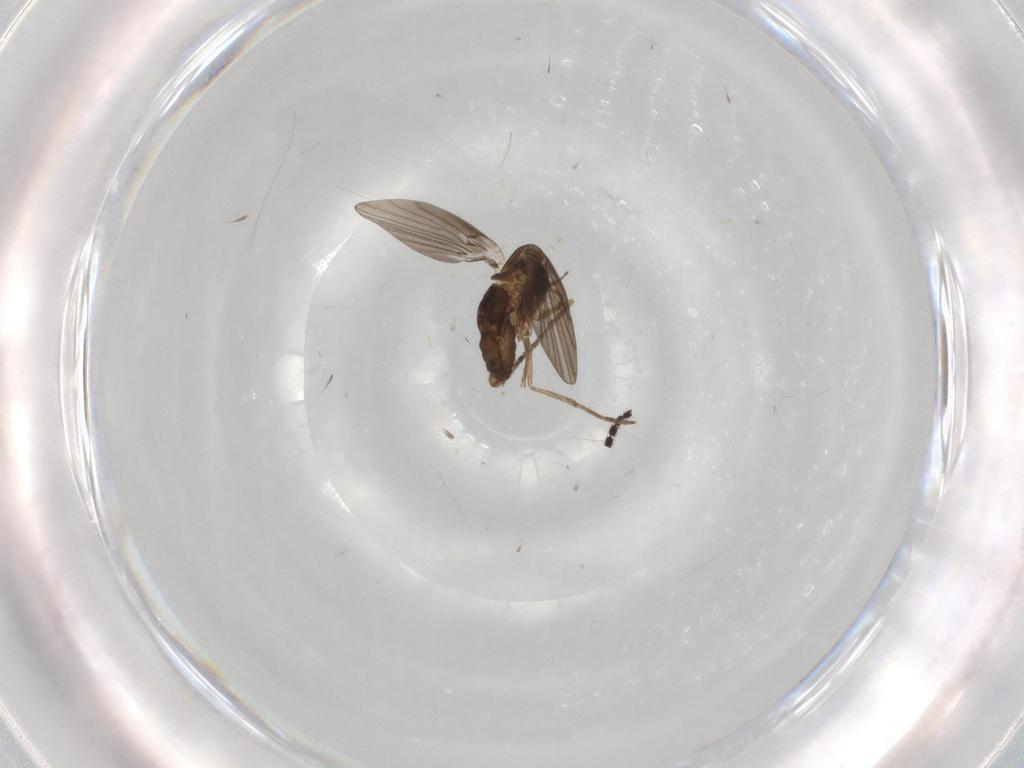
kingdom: Animalia
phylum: Arthropoda
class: Insecta
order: Diptera
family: Sciaridae
